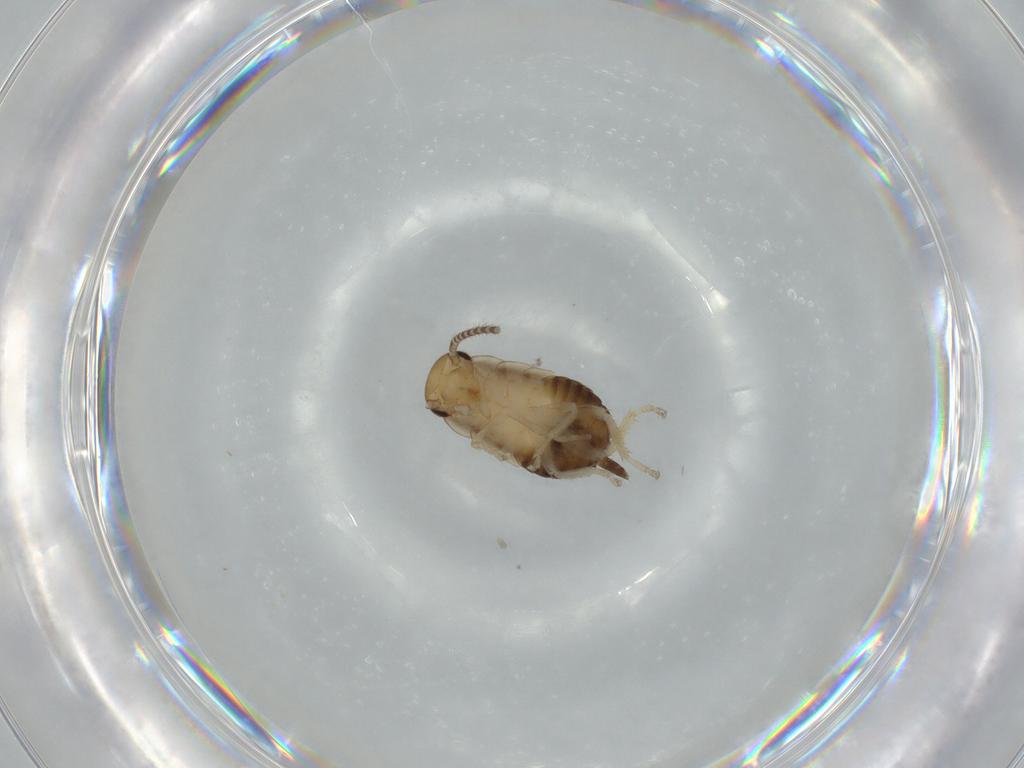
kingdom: Animalia
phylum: Arthropoda
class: Insecta
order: Blattodea
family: Ectobiidae
